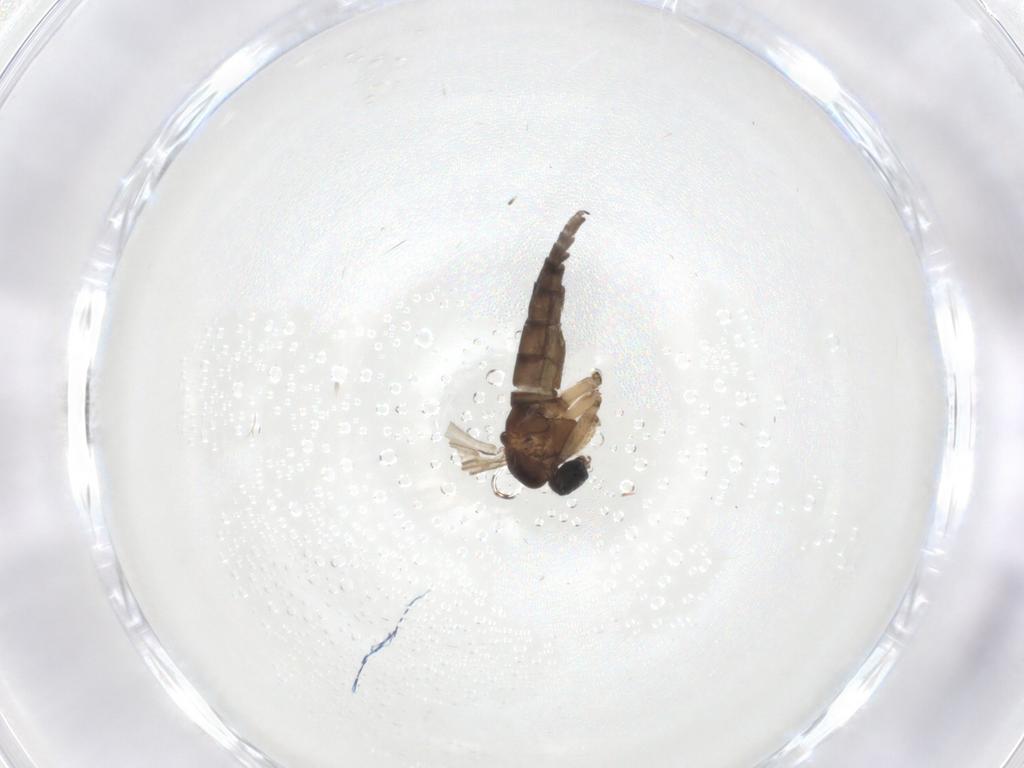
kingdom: Animalia
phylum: Arthropoda
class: Insecta
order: Diptera
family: Sciaridae
